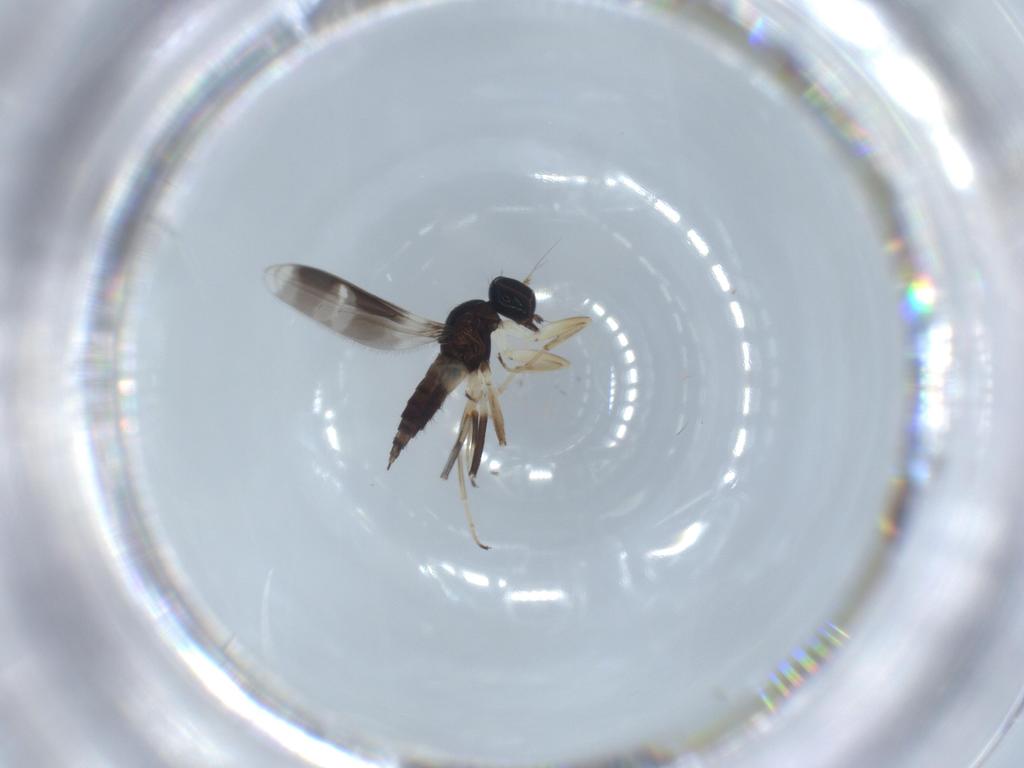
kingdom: Animalia
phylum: Arthropoda
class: Insecta
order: Diptera
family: Hybotidae
